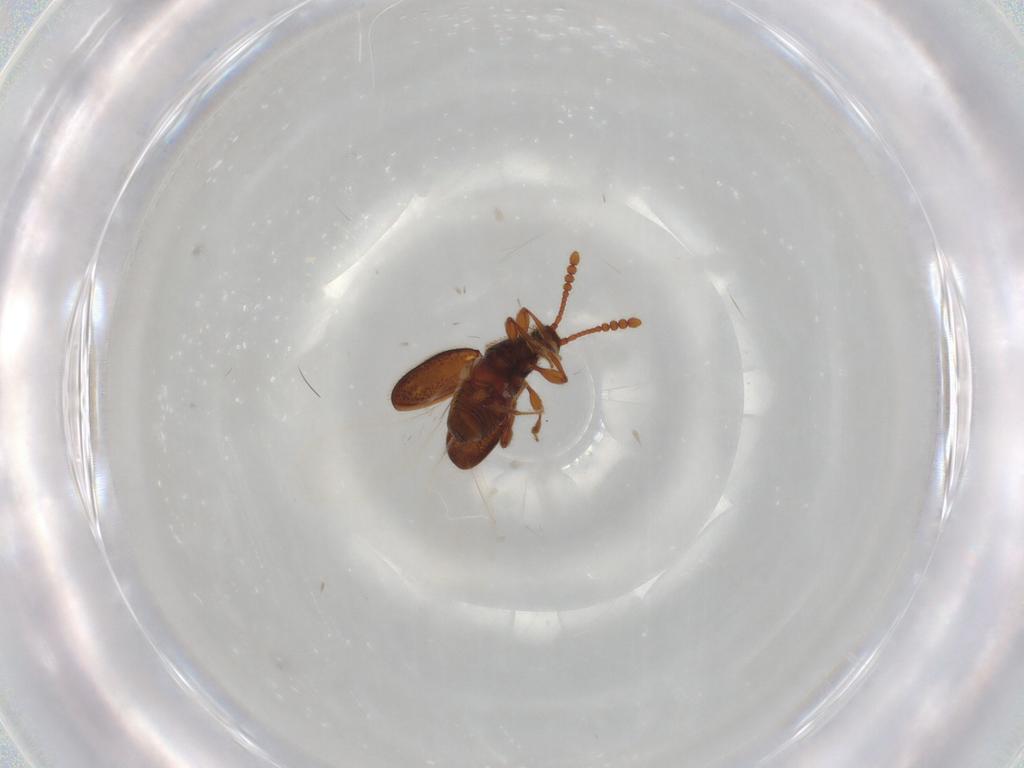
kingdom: Animalia
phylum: Arthropoda
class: Insecta
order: Coleoptera
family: Staphylinidae
